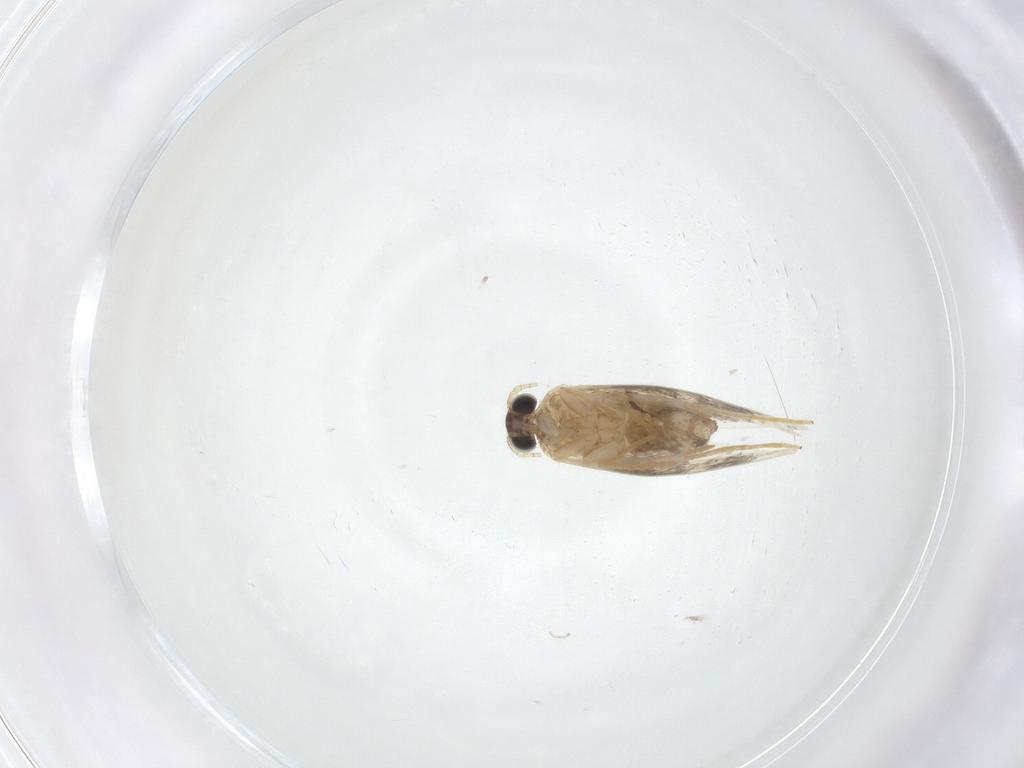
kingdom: Animalia
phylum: Arthropoda
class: Insecta
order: Lepidoptera
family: Tineidae
